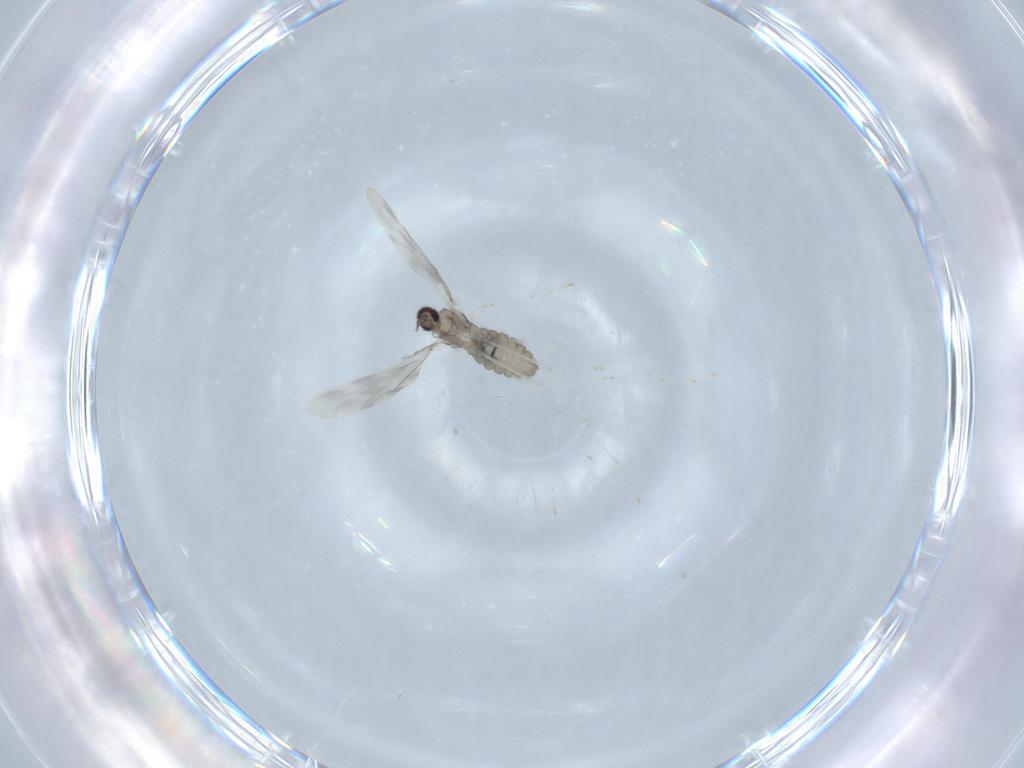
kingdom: Animalia
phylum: Arthropoda
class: Insecta
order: Diptera
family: Cecidomyiidae
